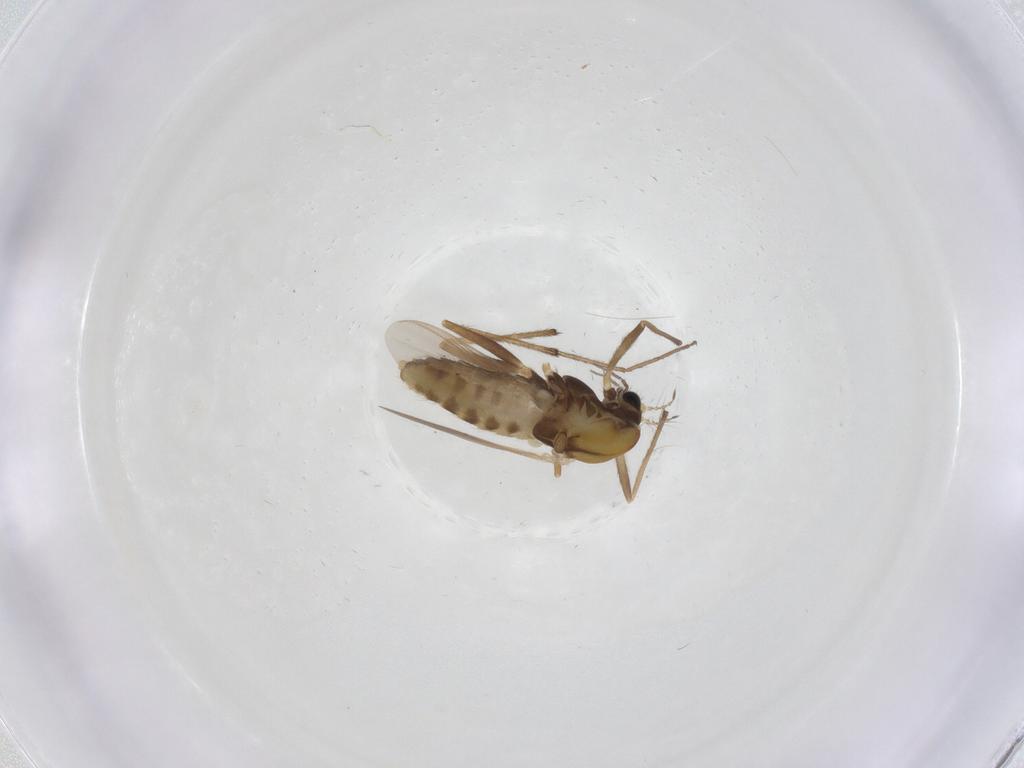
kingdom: Animalia
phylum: Arthropoda
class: Insecta
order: Diptera
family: Chironomidae
